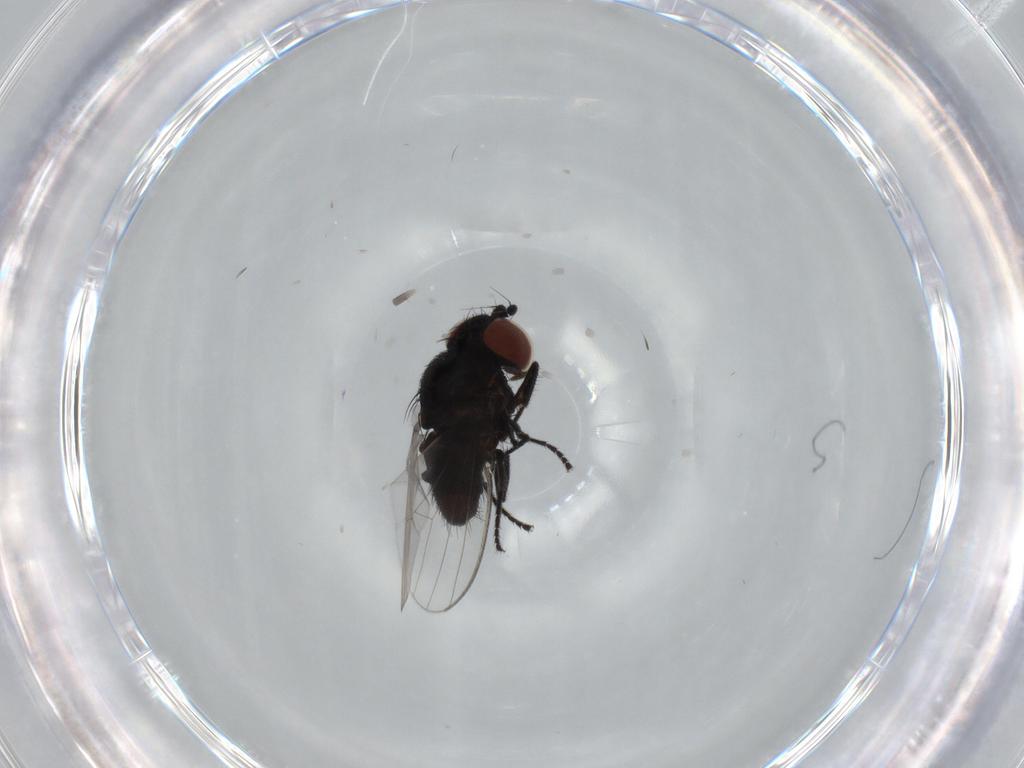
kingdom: Animalia
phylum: Arthropoda
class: Insecta
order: Diptera
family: Milichiidae
